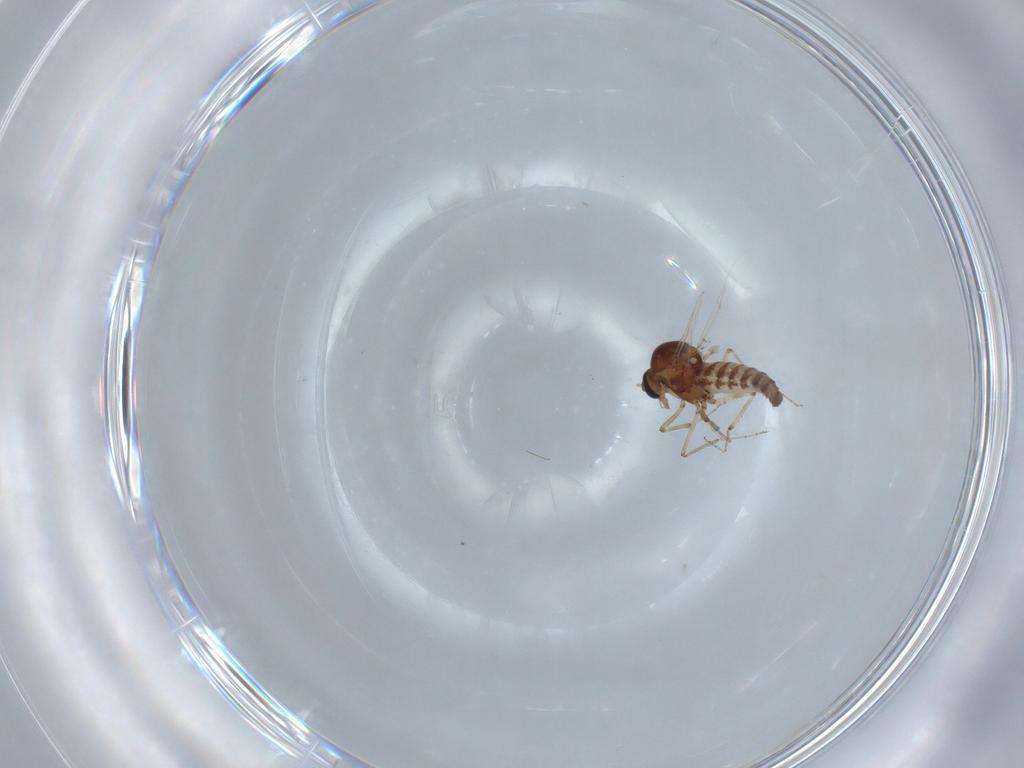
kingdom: Animalia
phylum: Arthropoda
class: Insecta
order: Diptera
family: Ceratopogonidae
